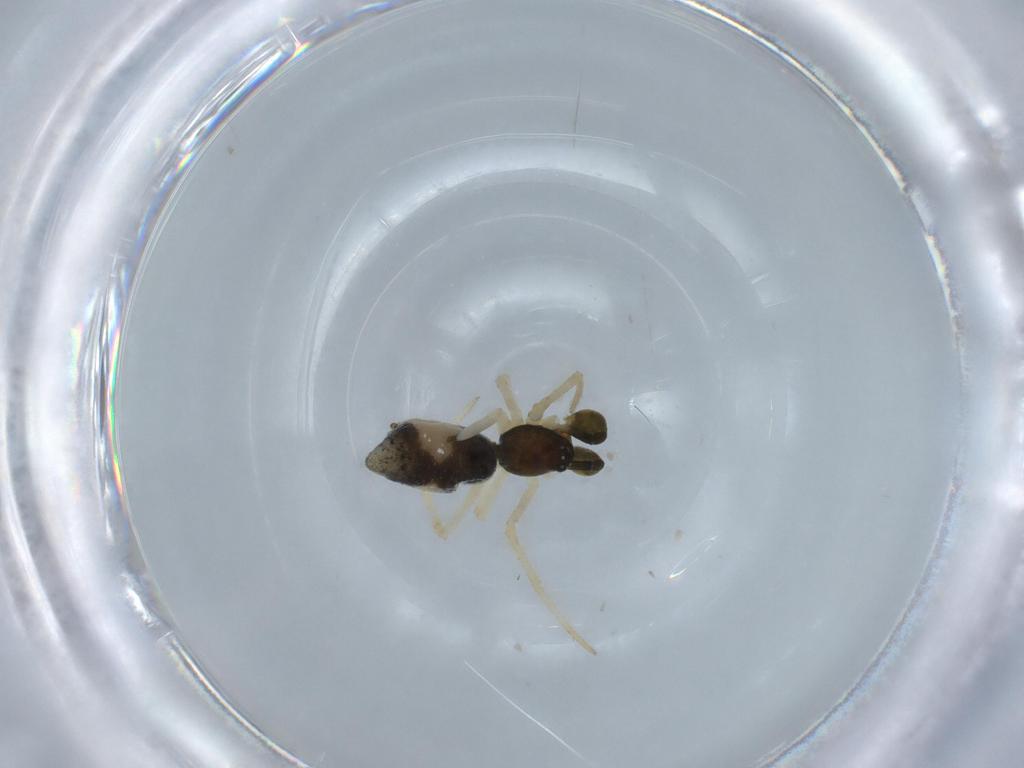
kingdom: Animalia
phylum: Arthropoda
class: Arachnida
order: Araneae
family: Theridiidae
